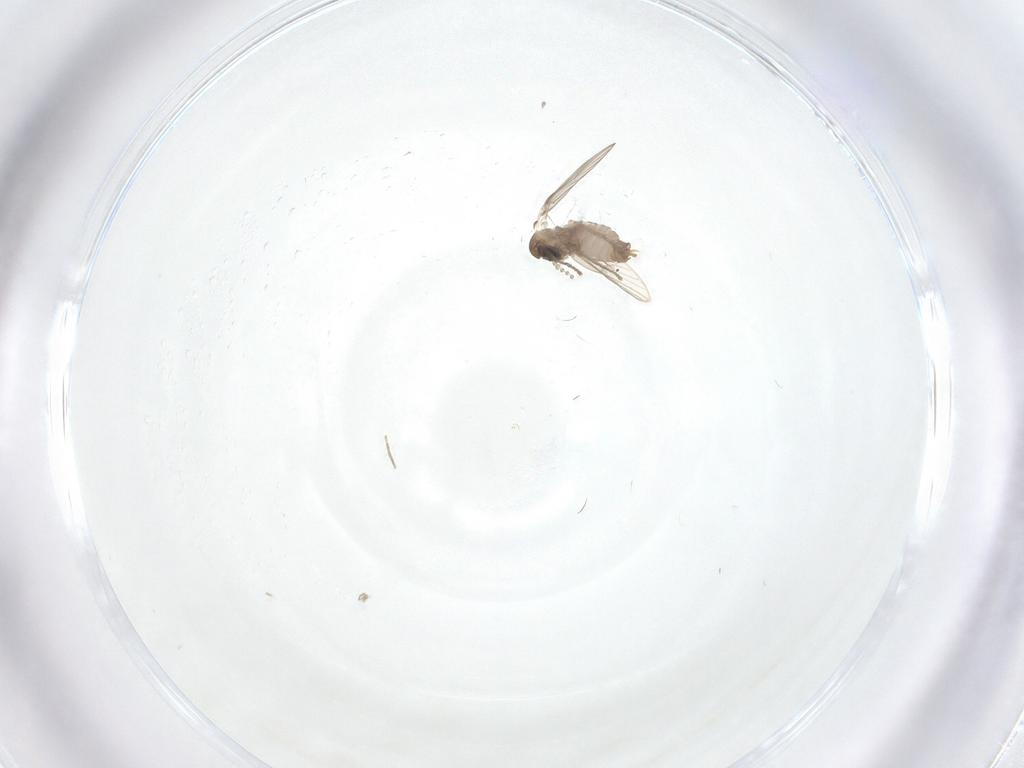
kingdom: Animalia
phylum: Arthropoda
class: Insecta
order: Diptera
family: Psychodidae
